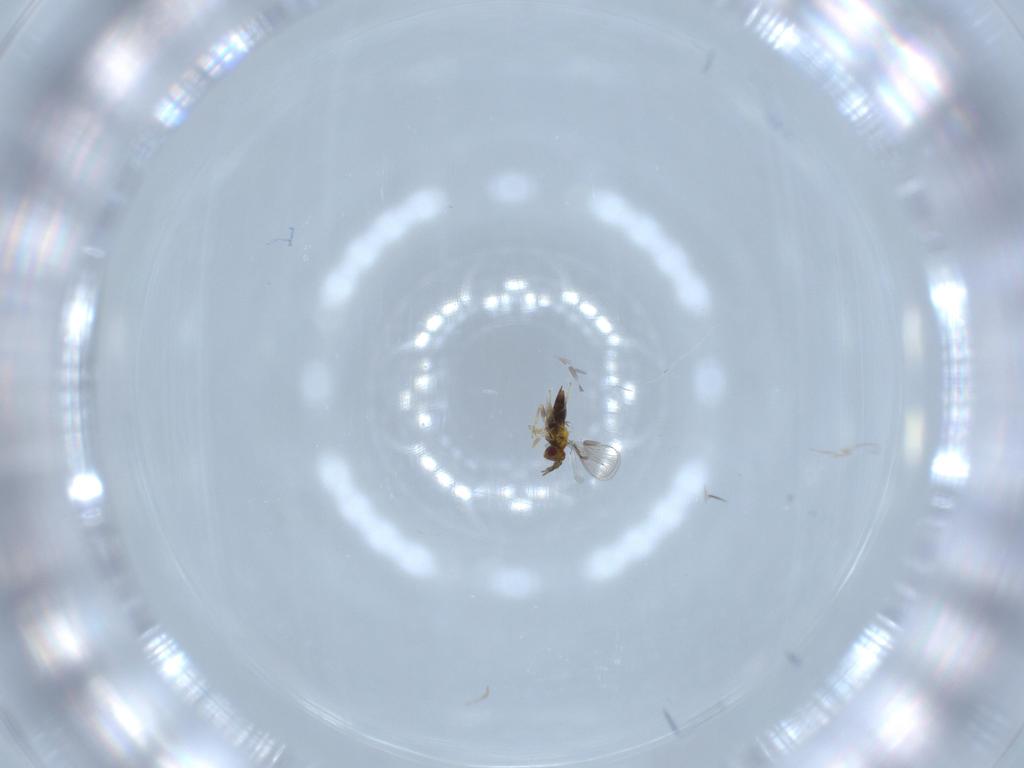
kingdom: Animalia
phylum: Arthropoda
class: Insecta
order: Hymenoptera
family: Trichogrammatidae
